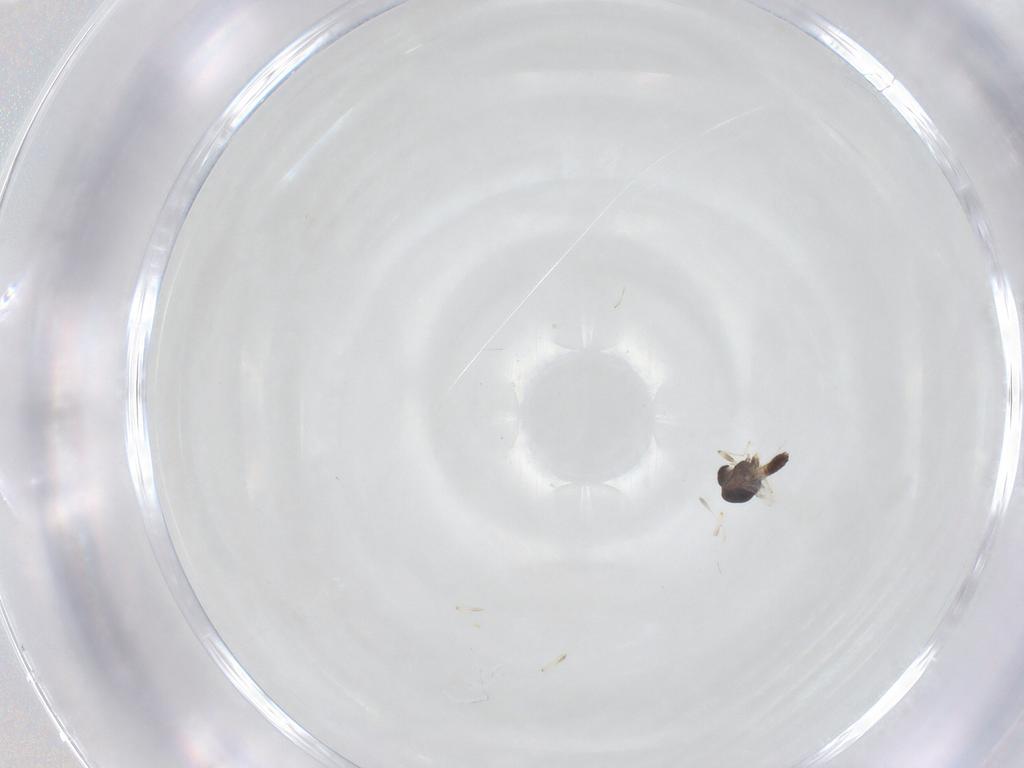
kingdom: Animalia
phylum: Arthropoda
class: Insecta
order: Diptera
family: Chironomidae
